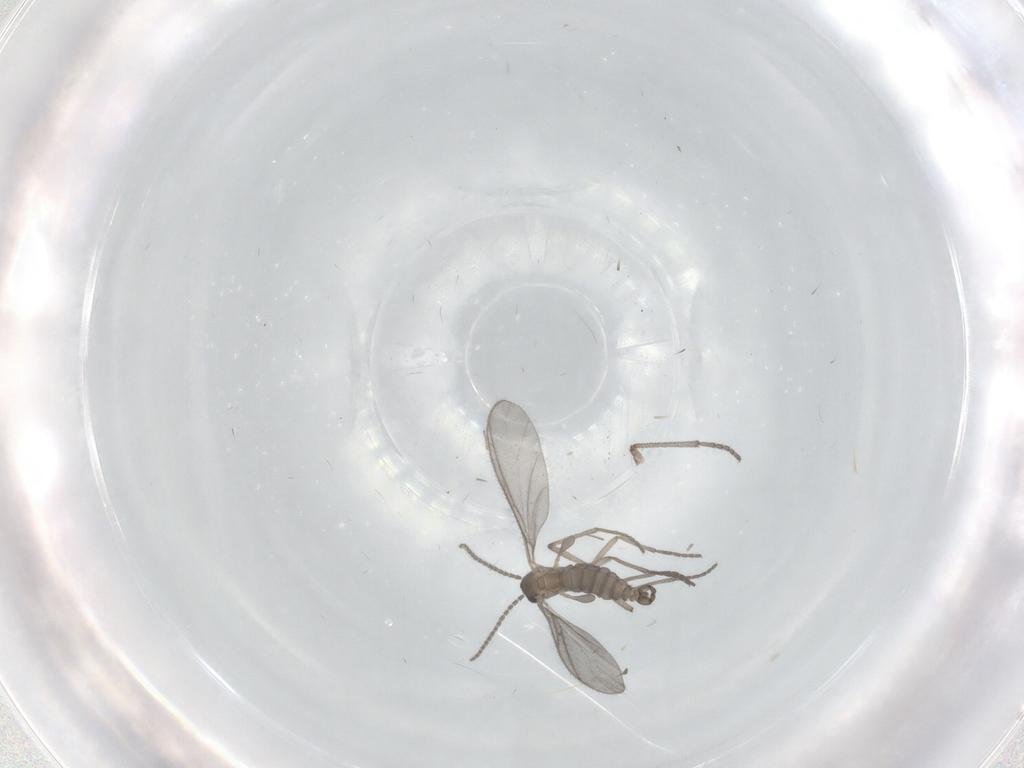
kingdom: Animalia
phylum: Arthropoda
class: Insecta
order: Diptera
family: Sciaridae
